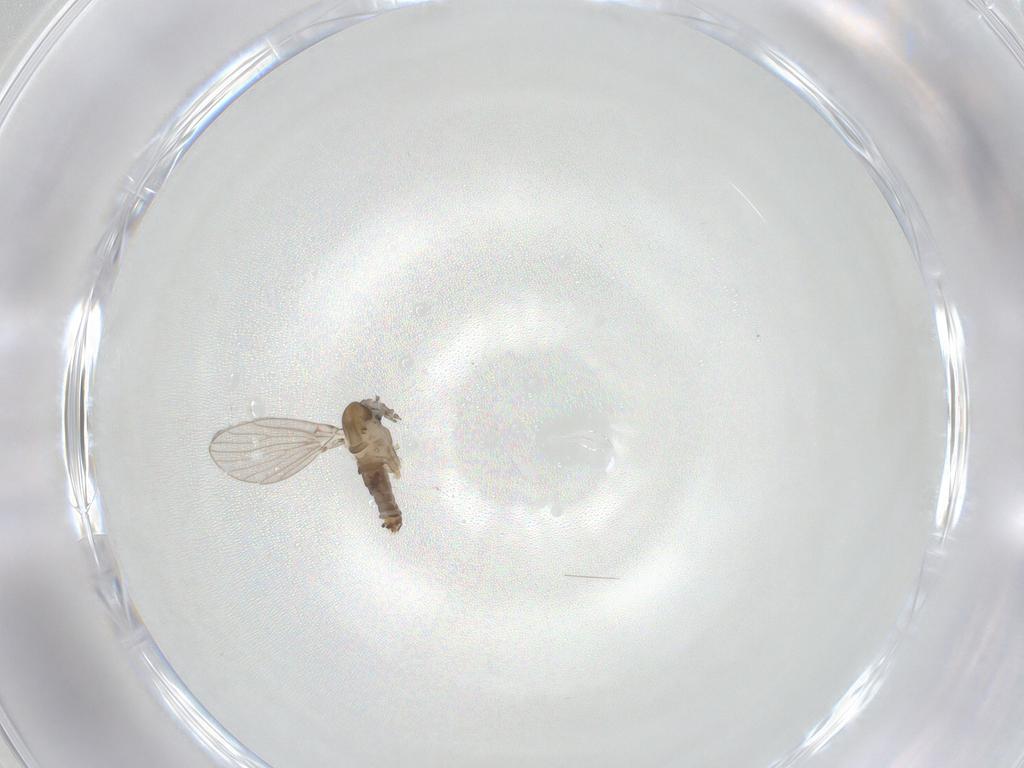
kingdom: Animalia
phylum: Arthropoda
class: Insecta
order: Diptera
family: Psychodidae
